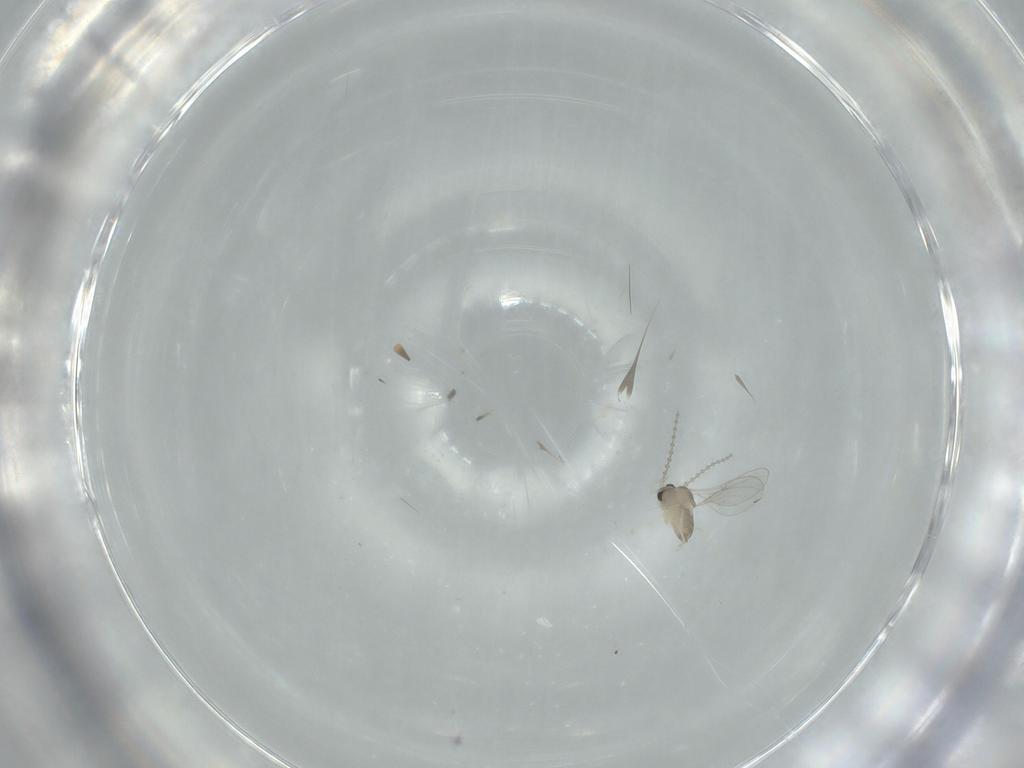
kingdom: Animalia
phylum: Arthropoda
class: Insecta
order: Diptera
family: Cecidomyiidae
